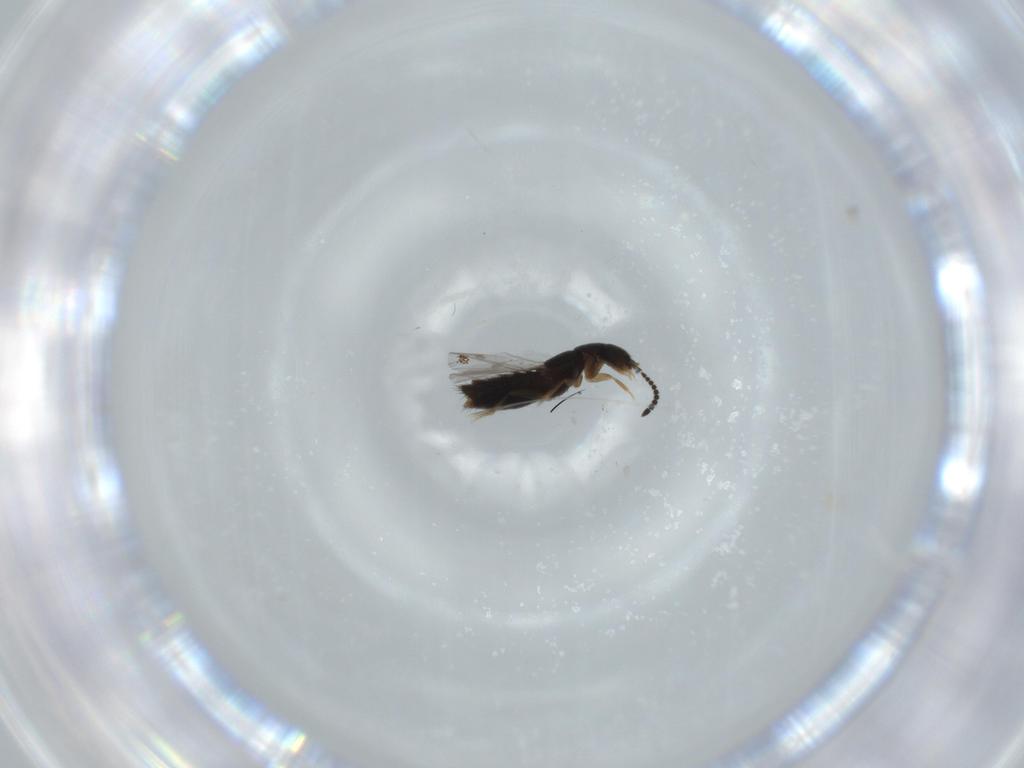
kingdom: Animalia
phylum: Arthropoda
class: Insecta
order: Coleoptera
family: Staphylinidae
